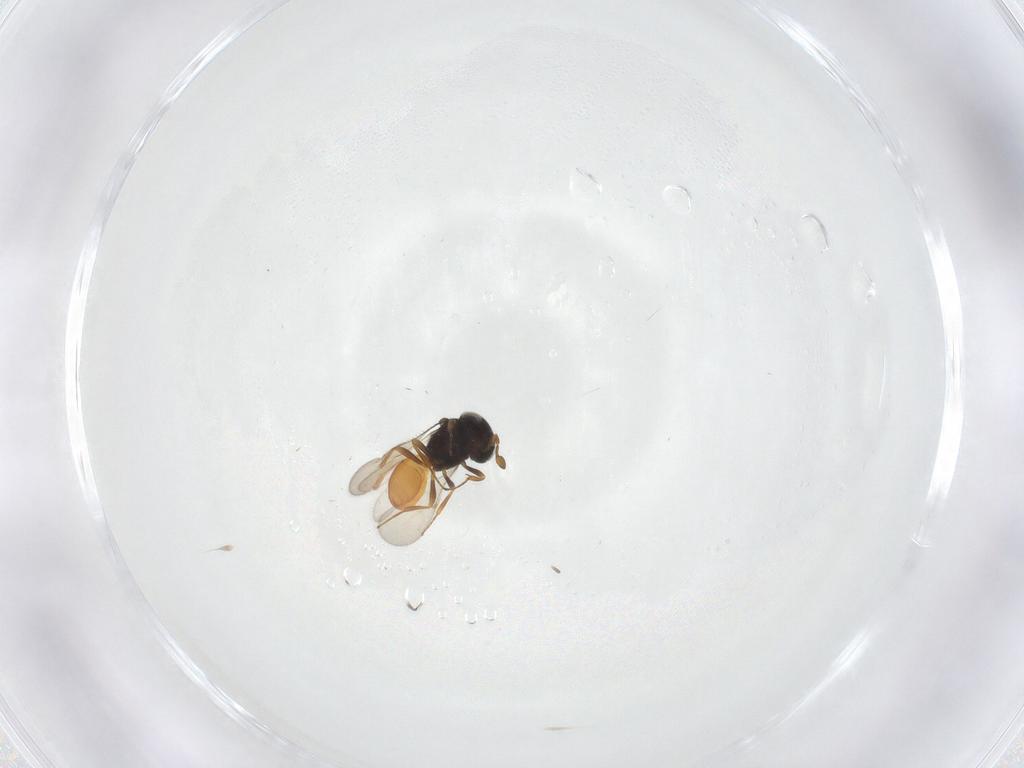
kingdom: Animalia
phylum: Arthropoda
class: Insecta
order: Hymenoptera
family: Scelionidae
